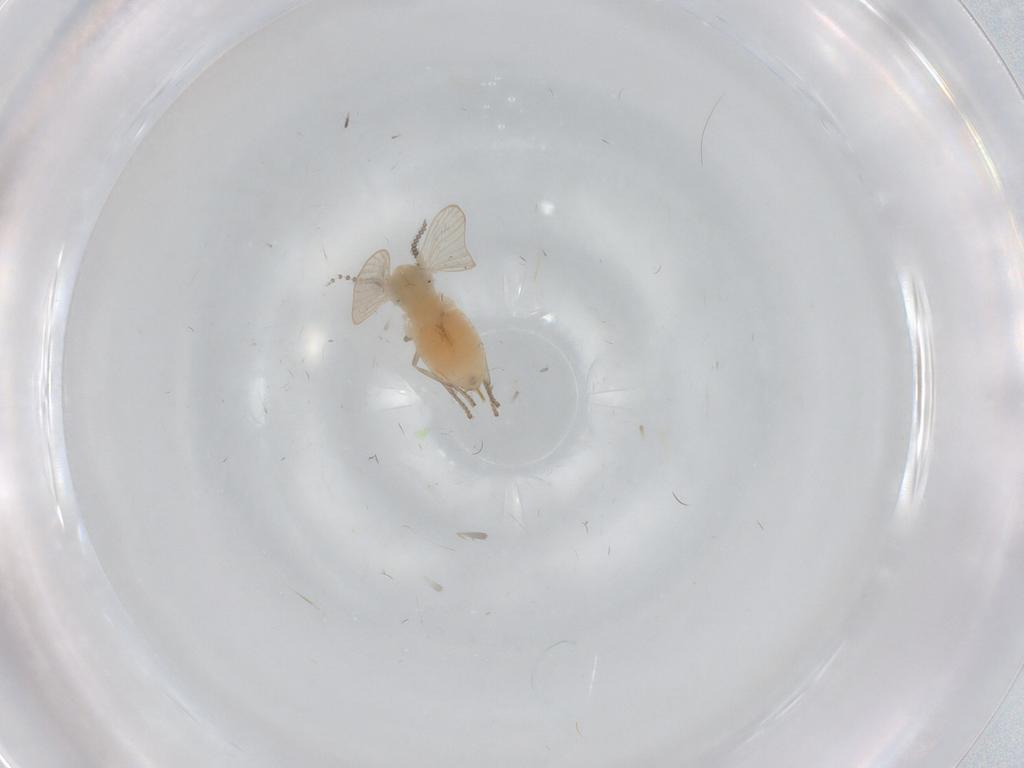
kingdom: Animalia
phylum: Arthropoda
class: Insecta
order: Diptera
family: Psychodidae
